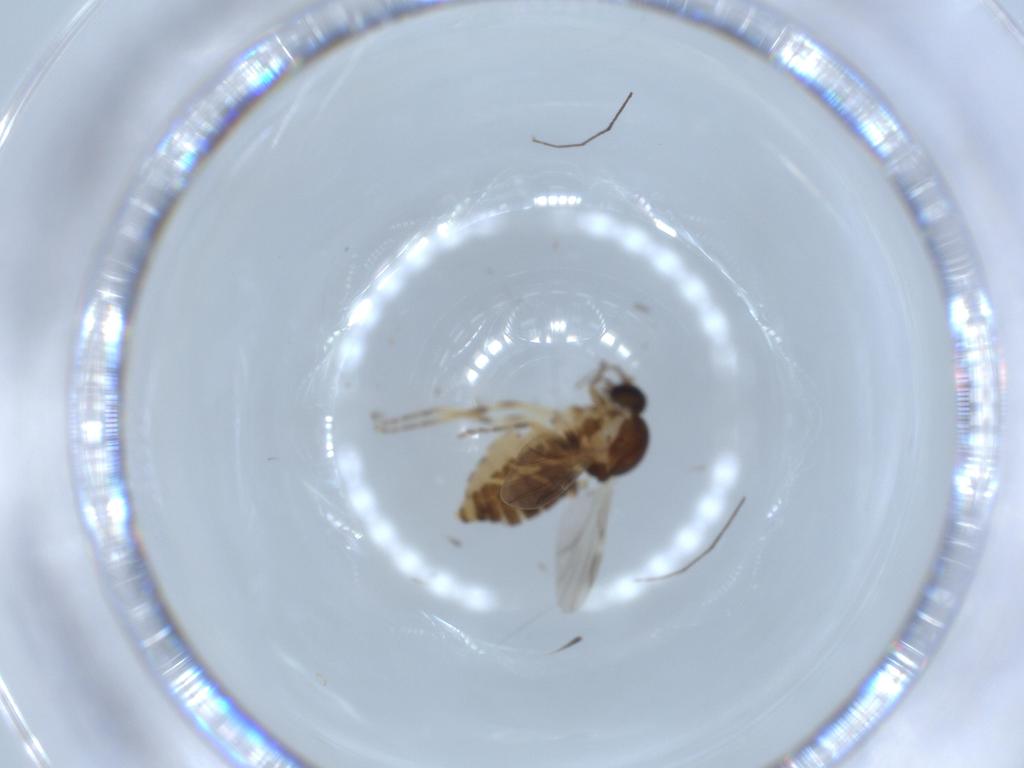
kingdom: Animalia
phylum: Arthropoda
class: Insecta
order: Diptera
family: Ceratopogonidae
